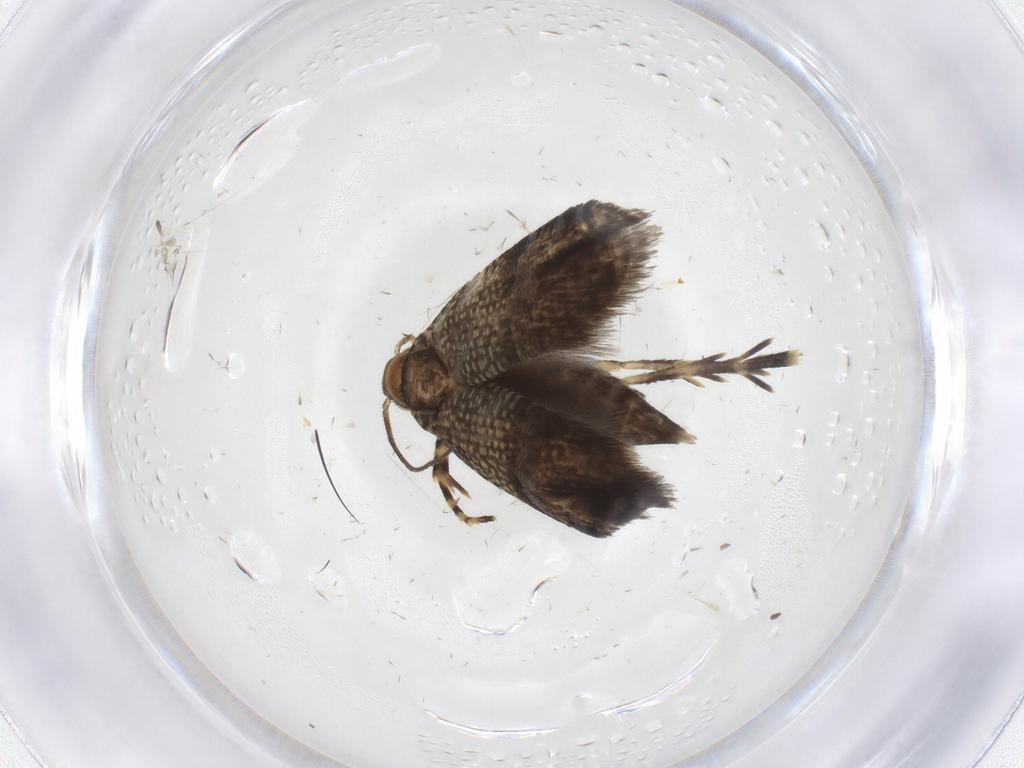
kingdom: Animalia
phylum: Arthropoda
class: Insecta
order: Lepidoptera
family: Geometridae
